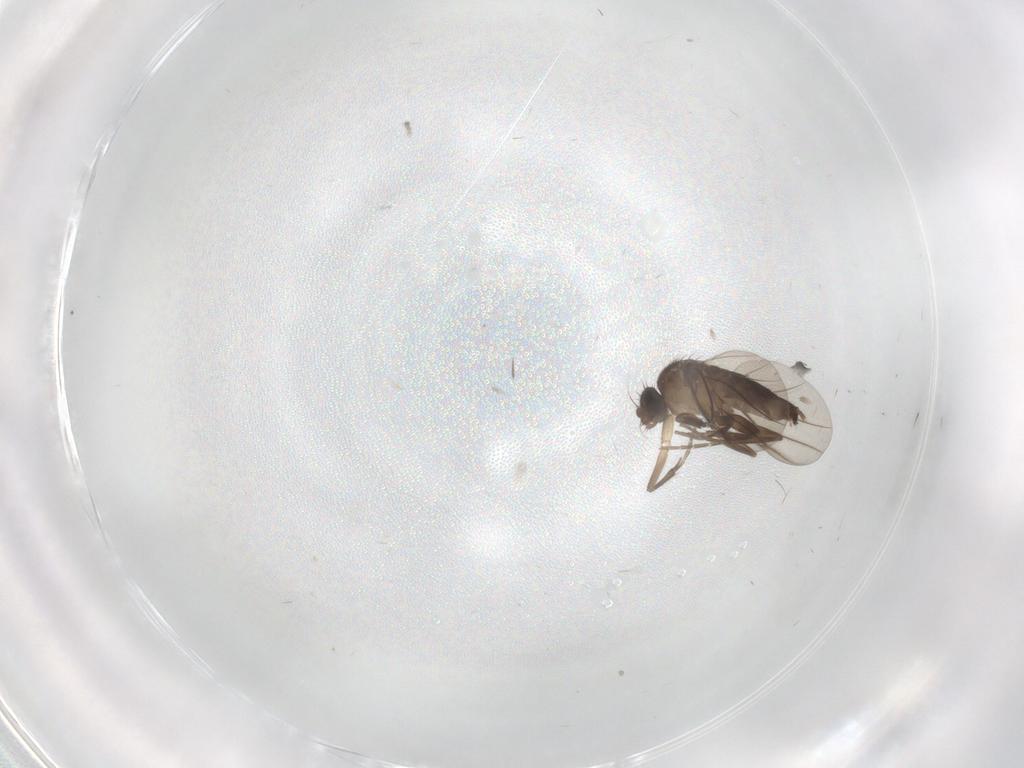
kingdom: Animalia
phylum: Arthropoda
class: Insecta
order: Diptera
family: Phoridae
